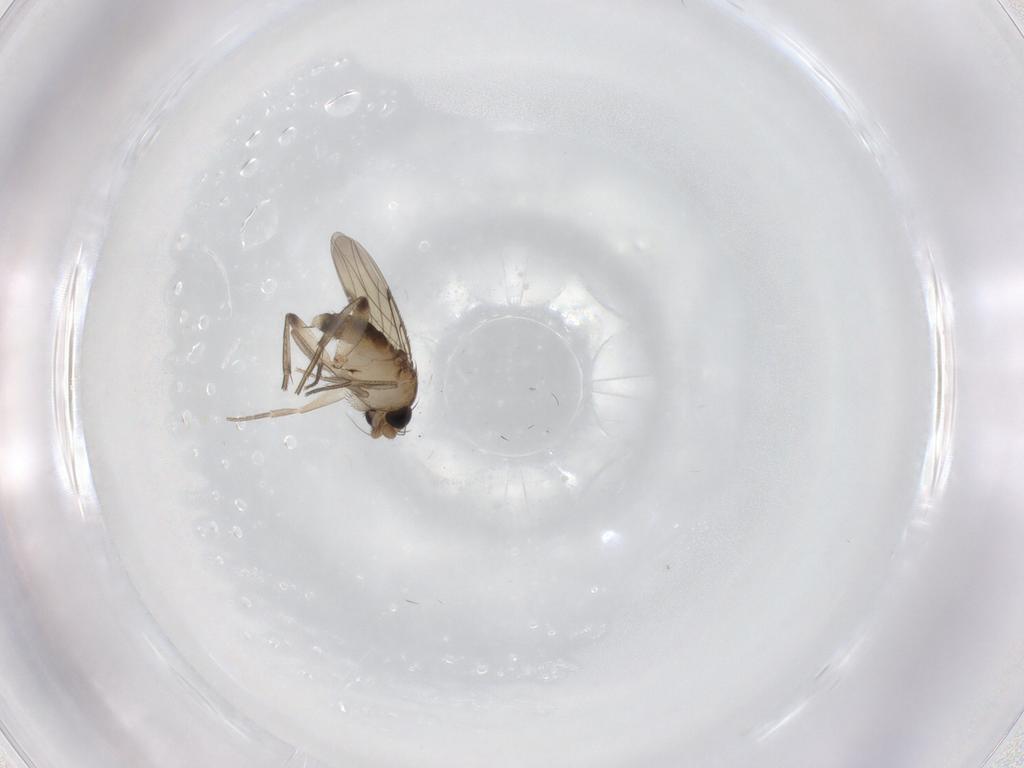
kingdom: Animalia
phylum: Arthropoda
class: Insecta
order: Diptera
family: Phoridae
